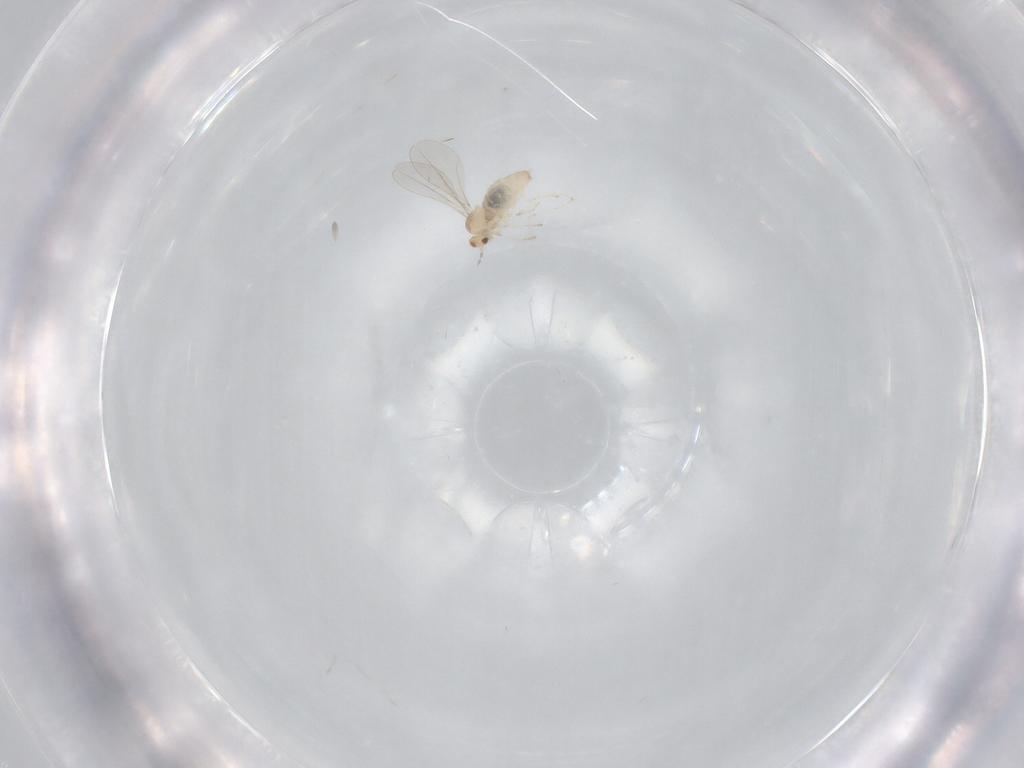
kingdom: Animalia
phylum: Arthropoda
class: Insecta
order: Diptera
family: Cecidomyiidae
